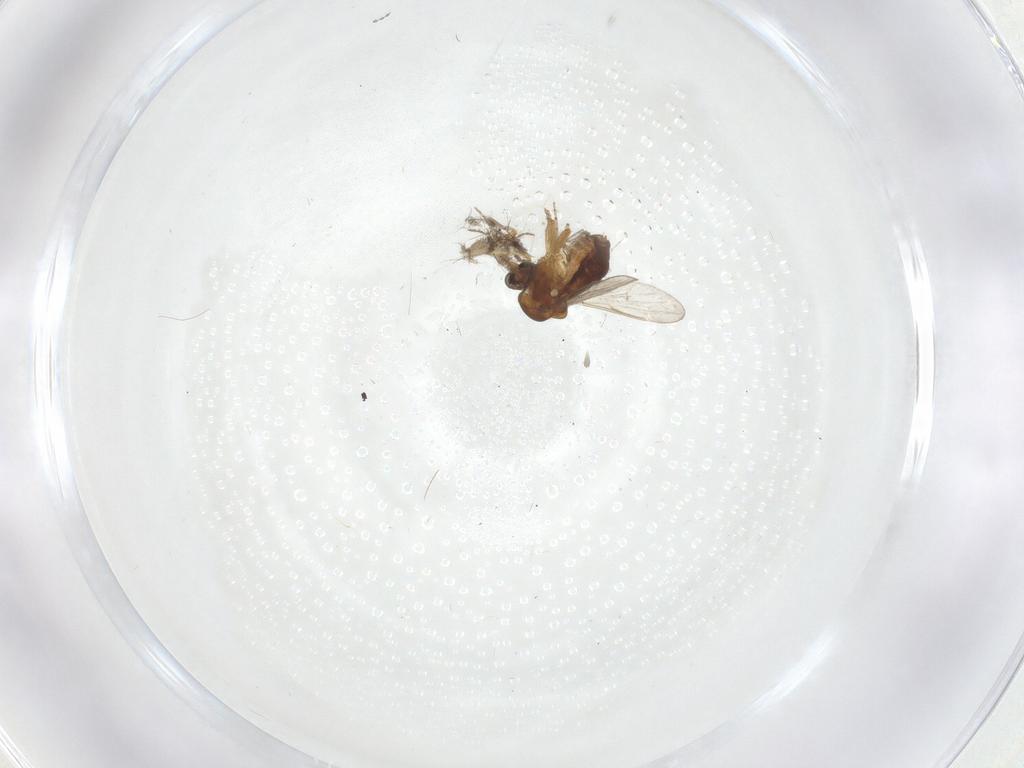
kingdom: Animalia
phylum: Arthropoda
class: Insecta
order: Diptera
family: Ceratopogonidae
